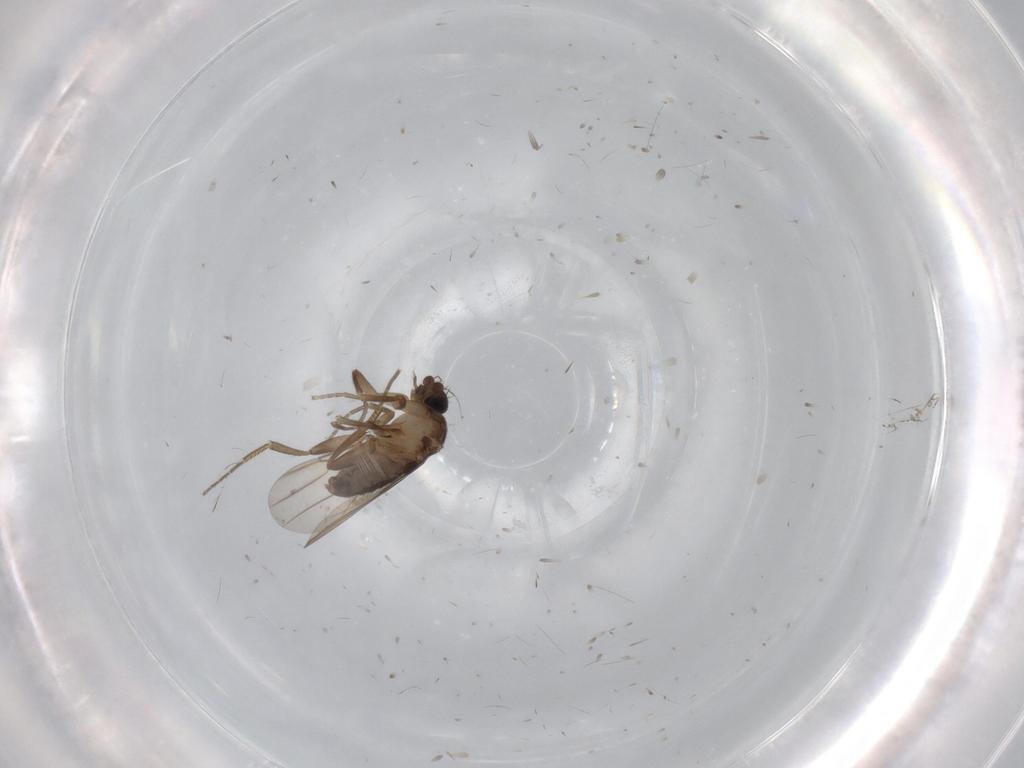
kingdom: Animalia
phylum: Arthropoda
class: Insecta
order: Diptera
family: Phoridae
